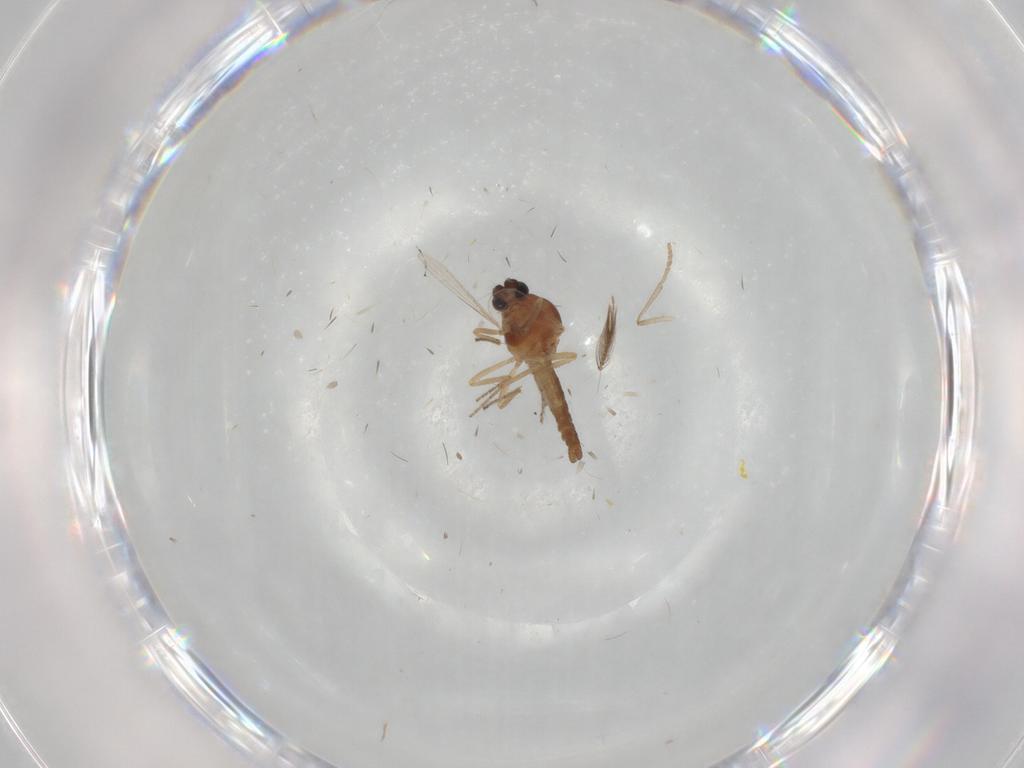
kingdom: Animalia
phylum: Arthropoda
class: Insecta
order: Diptera
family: Ceratopogonidae
